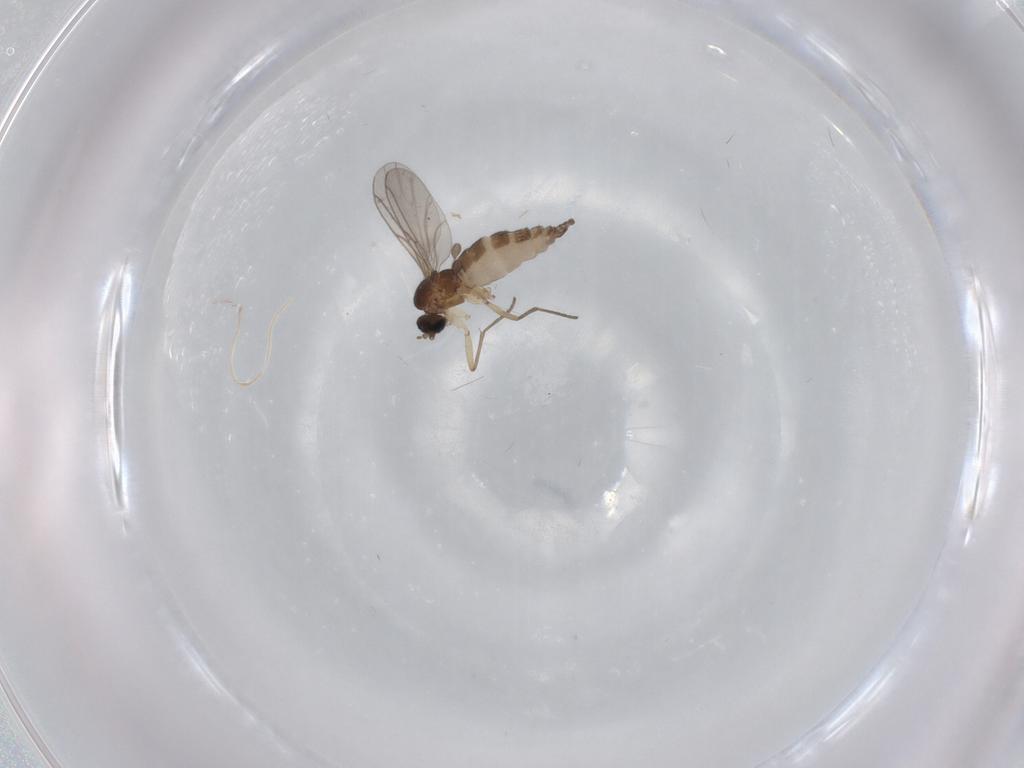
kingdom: Animalia
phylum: Arthropoda
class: Insecta
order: Diptera
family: Sciaridae
